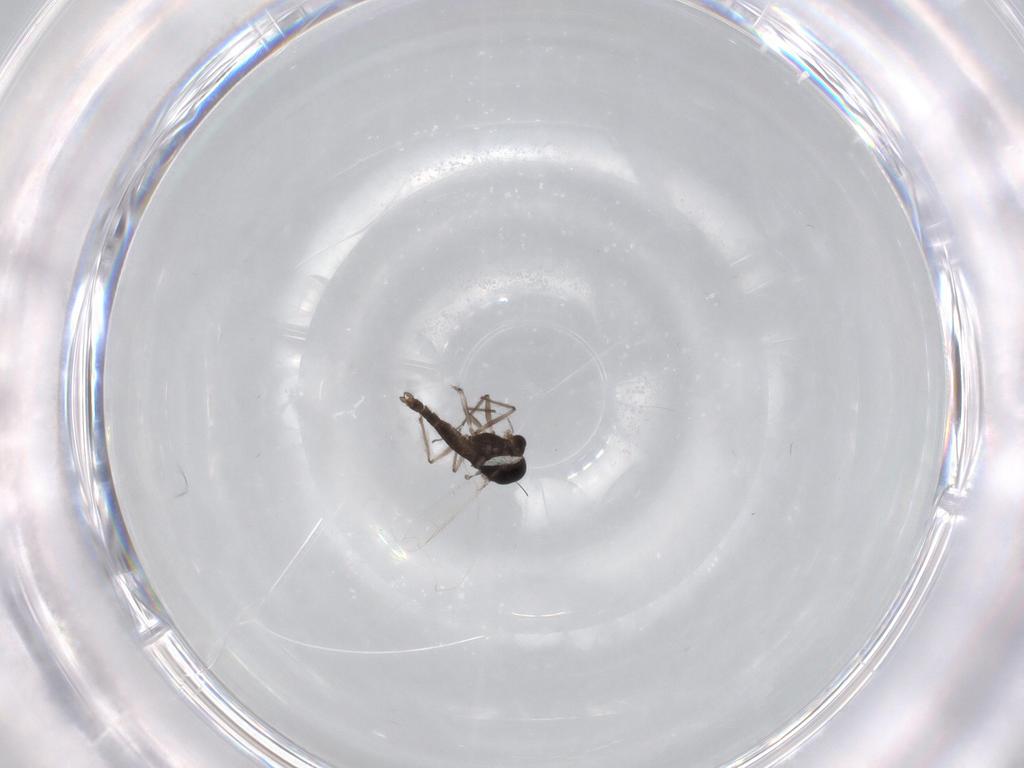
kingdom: Animalia
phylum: Arthropoda
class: Insecta
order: Diptera
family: Chironomidae
